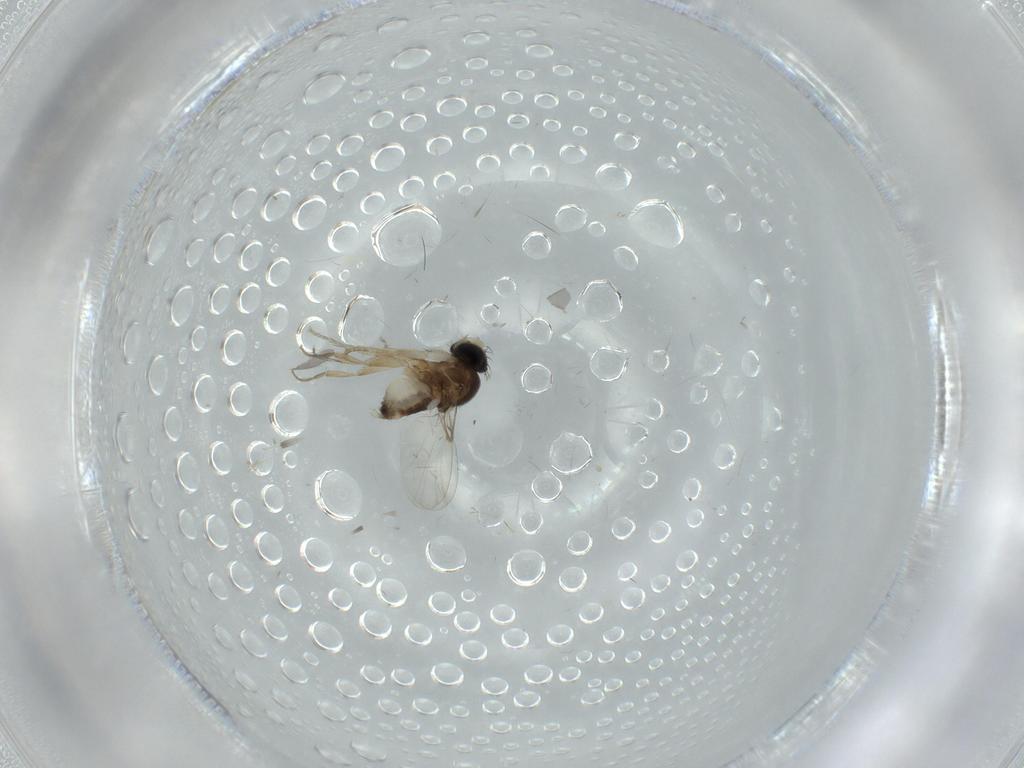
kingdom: Animalia
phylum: Arthropoda
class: Insecta
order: Diptera
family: Phoridae
